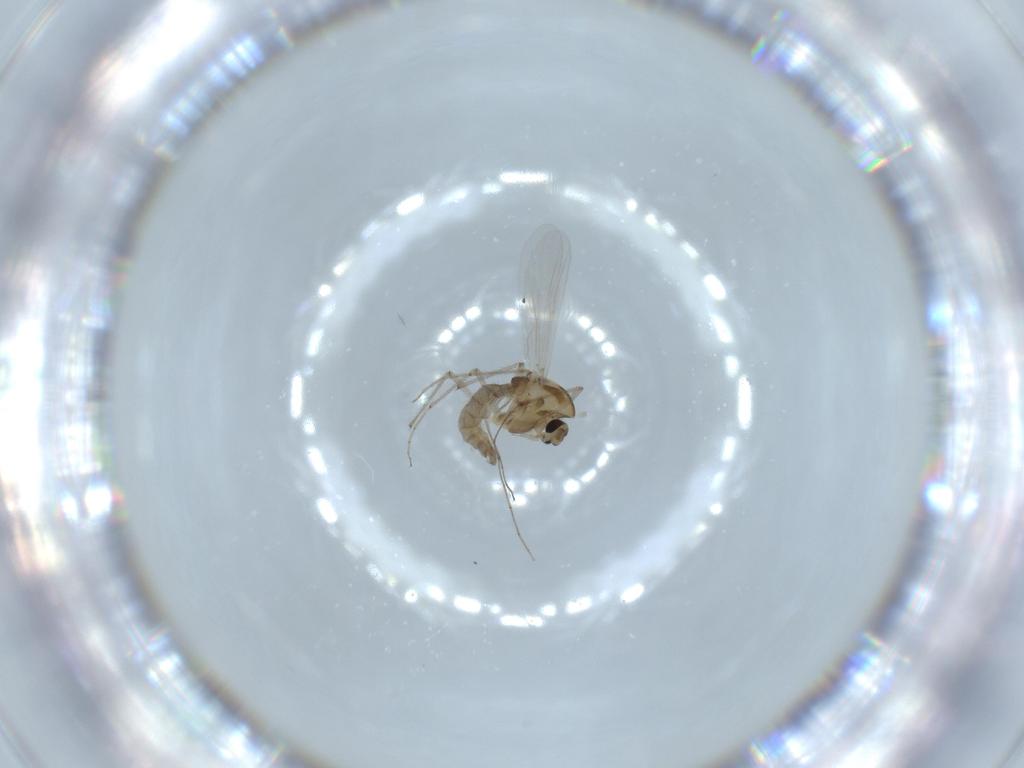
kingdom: Animalia
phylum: Arthropoda
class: Insecta
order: Diptera
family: Chironomidae
